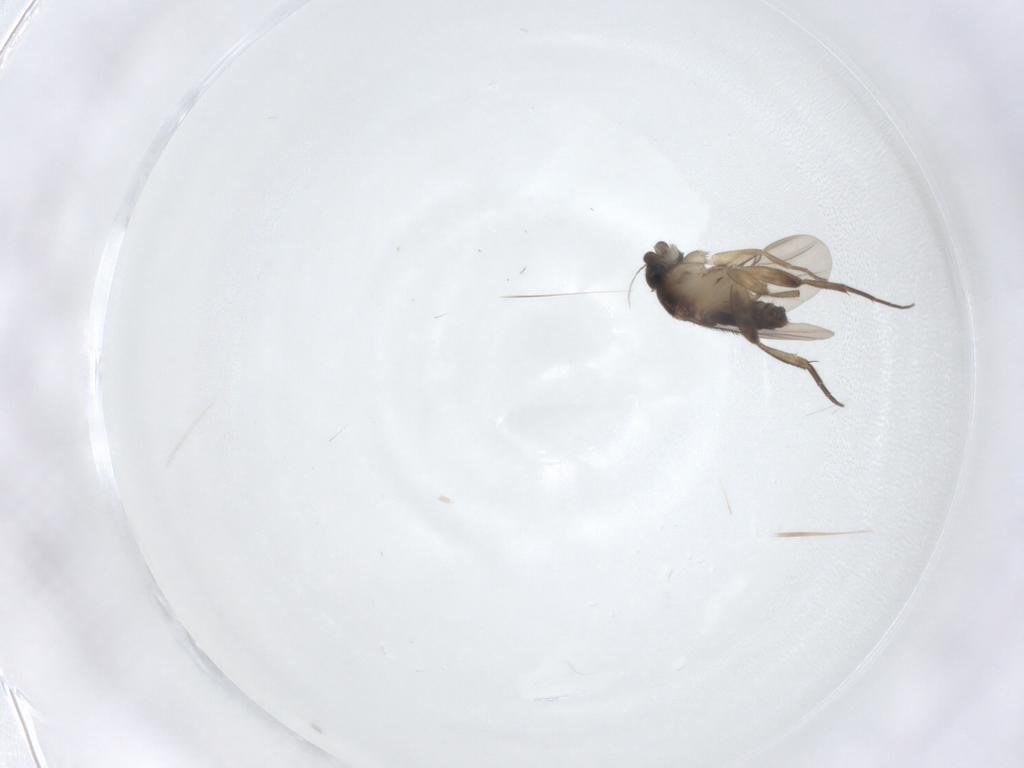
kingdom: Animalia
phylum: Arthropoda
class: Insecta
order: Diptera
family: Phoridae
